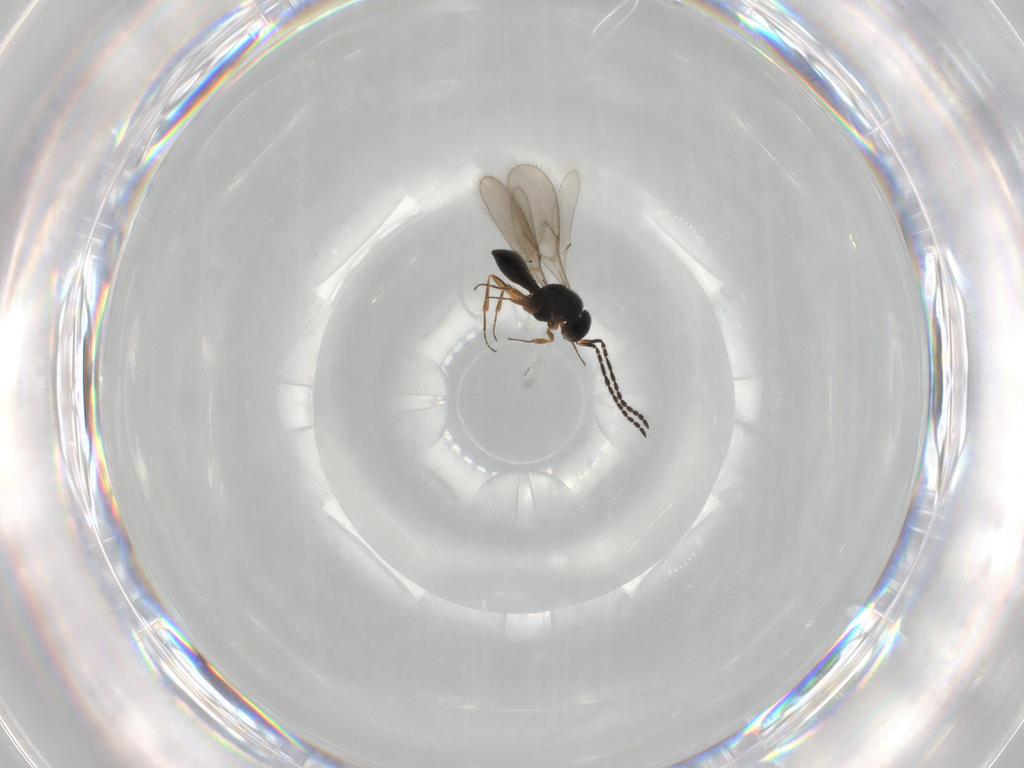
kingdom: Animalia
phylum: Arthropoda
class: Insecta
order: Hymenoptera
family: Scelionidae
